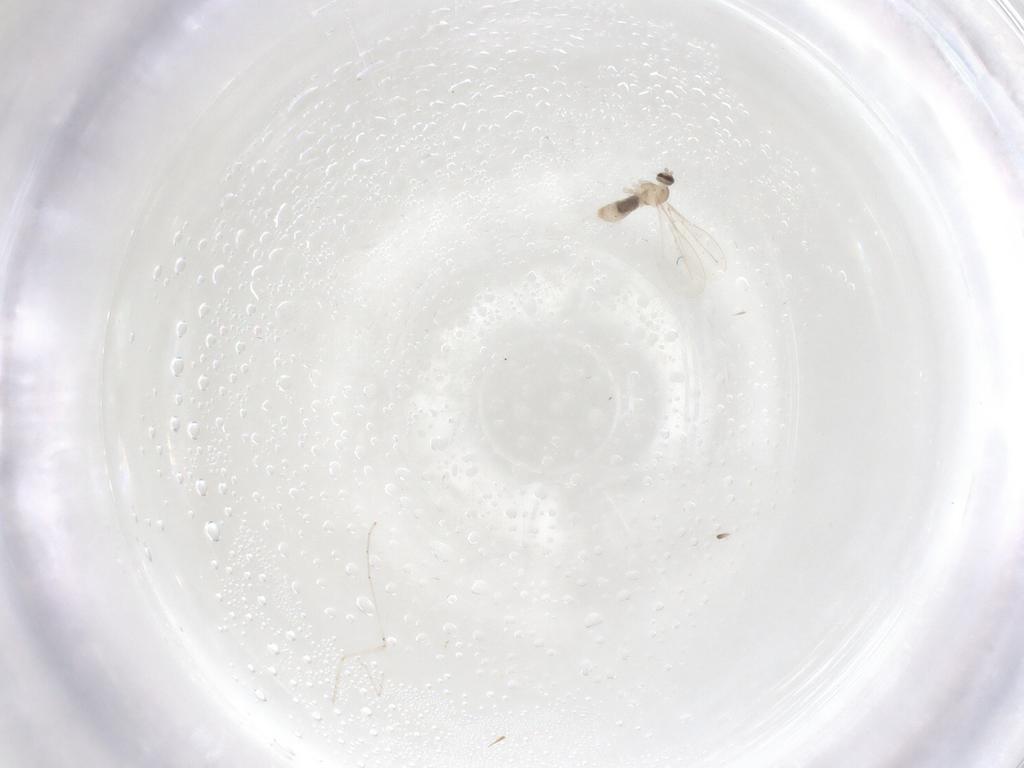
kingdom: Animalia
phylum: Arthropoda
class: Insecta
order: Diptera
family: Cecidomyiidae
